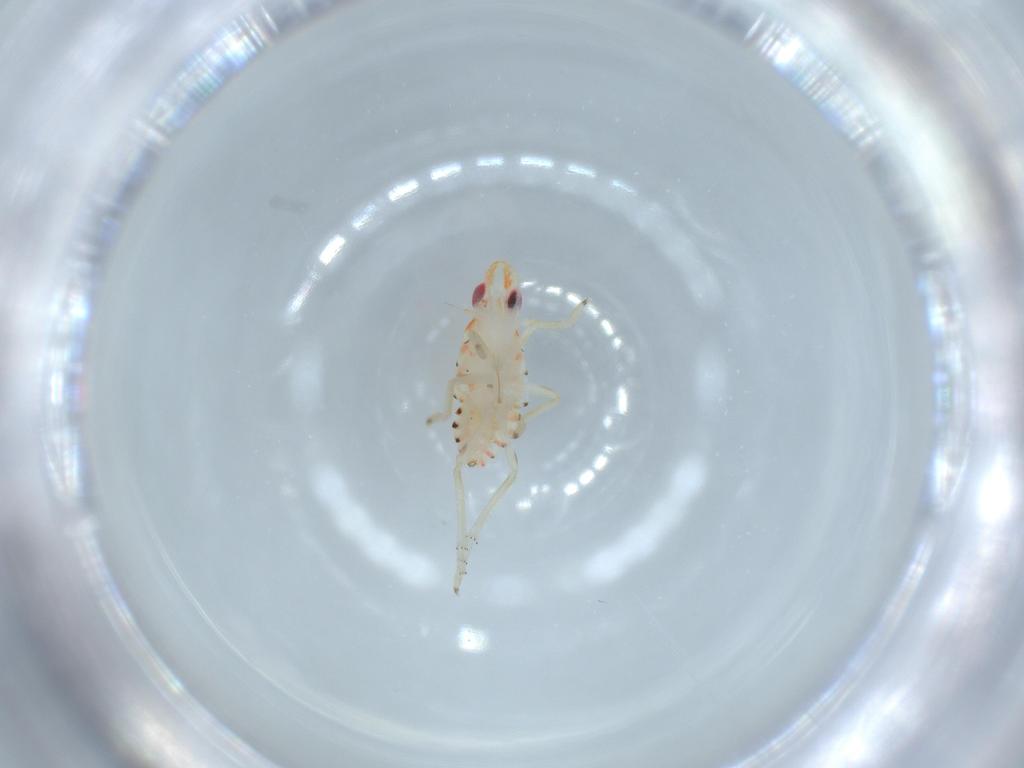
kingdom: Animalia
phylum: Arthropoda
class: Insecta
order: Hemiptera
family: Tropiduchidae
